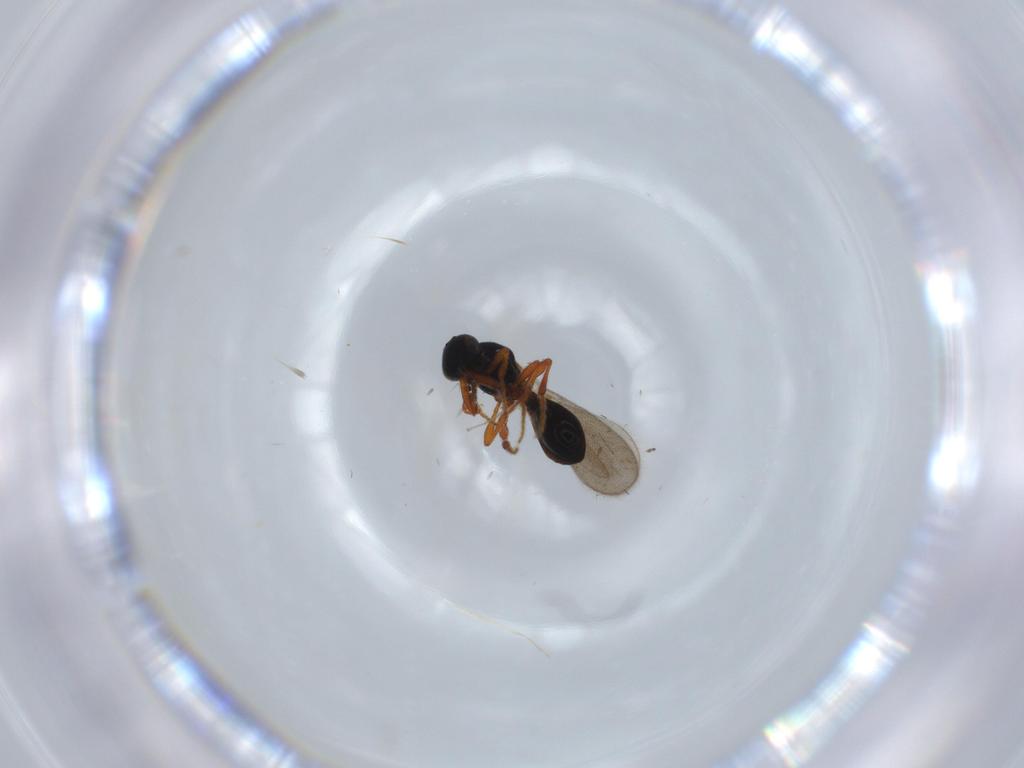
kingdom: Animalia
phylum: Arthropoda
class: Insecta
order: Hymenoptera
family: Platygastridae
